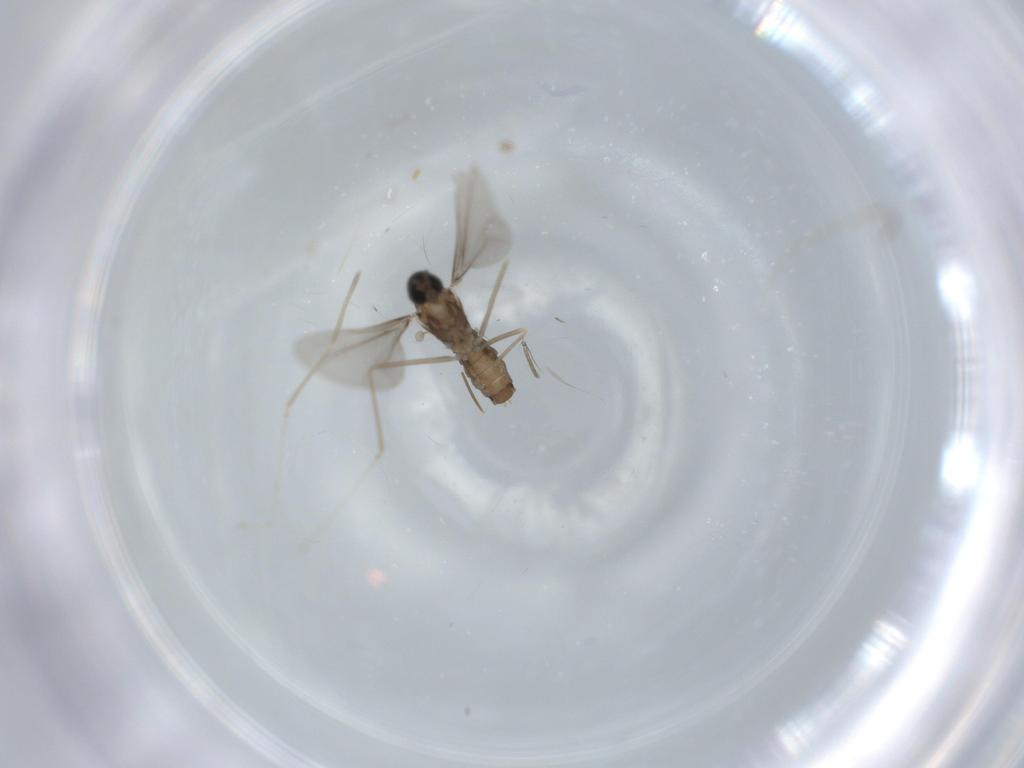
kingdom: Animalia
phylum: Arthropoda
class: Insecta
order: Diptera
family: Cecidomyiidae
